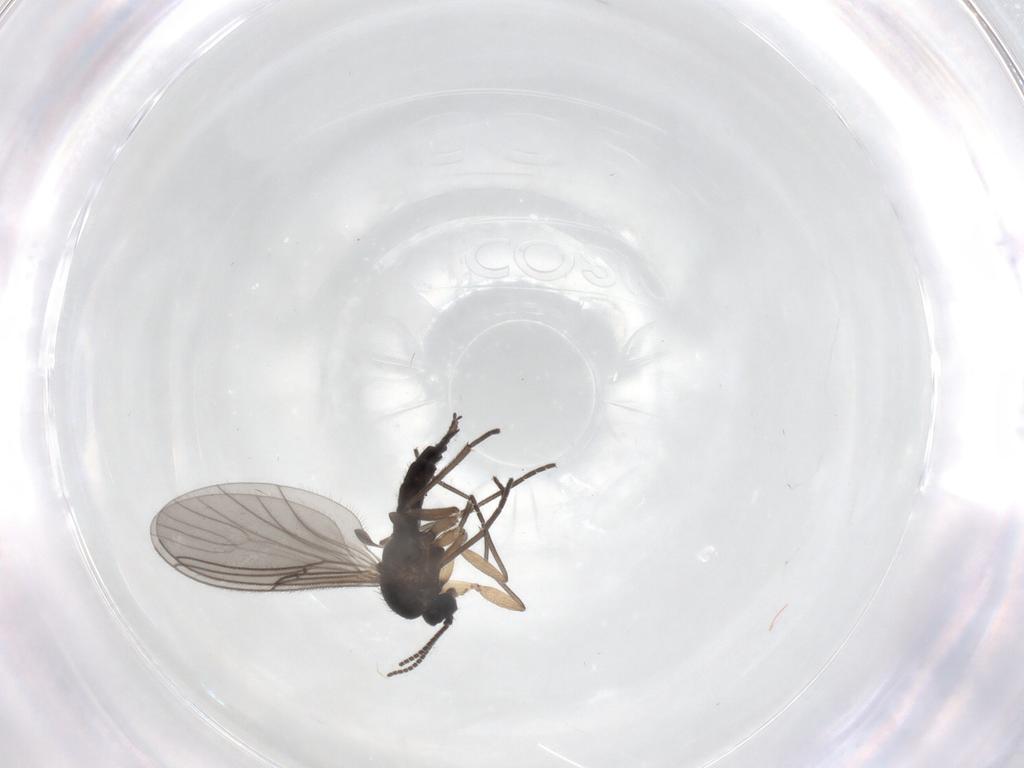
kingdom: Animalia
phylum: Arthropoda
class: Insecta
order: Diptera
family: Sciaridae
